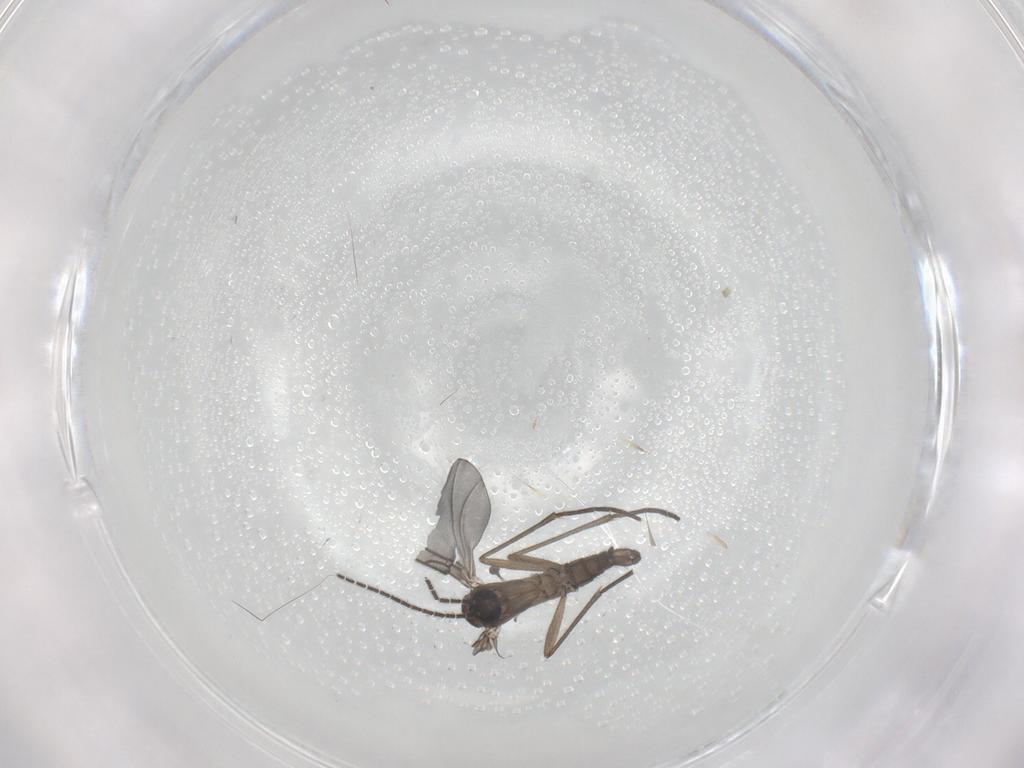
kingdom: Animalia
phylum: Arthropoda
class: Insecta
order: Diptera
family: Sciaridae
